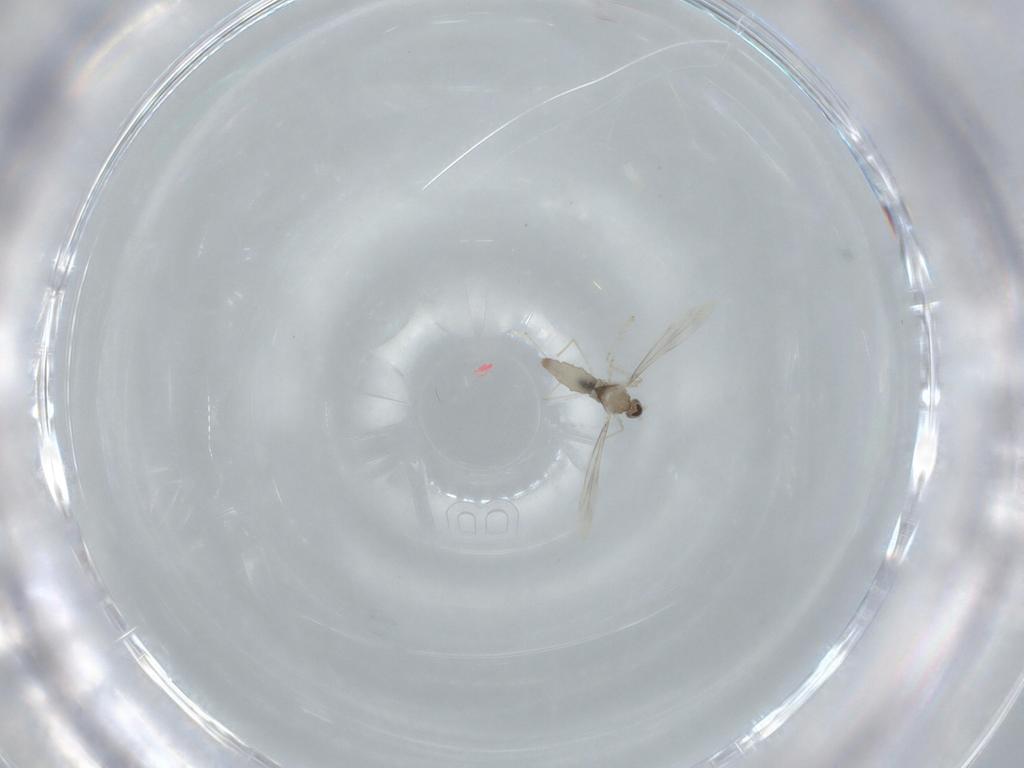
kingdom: Animalia
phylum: Arthropoda
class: Insecta
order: Diptera
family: Cecidomyiidae
